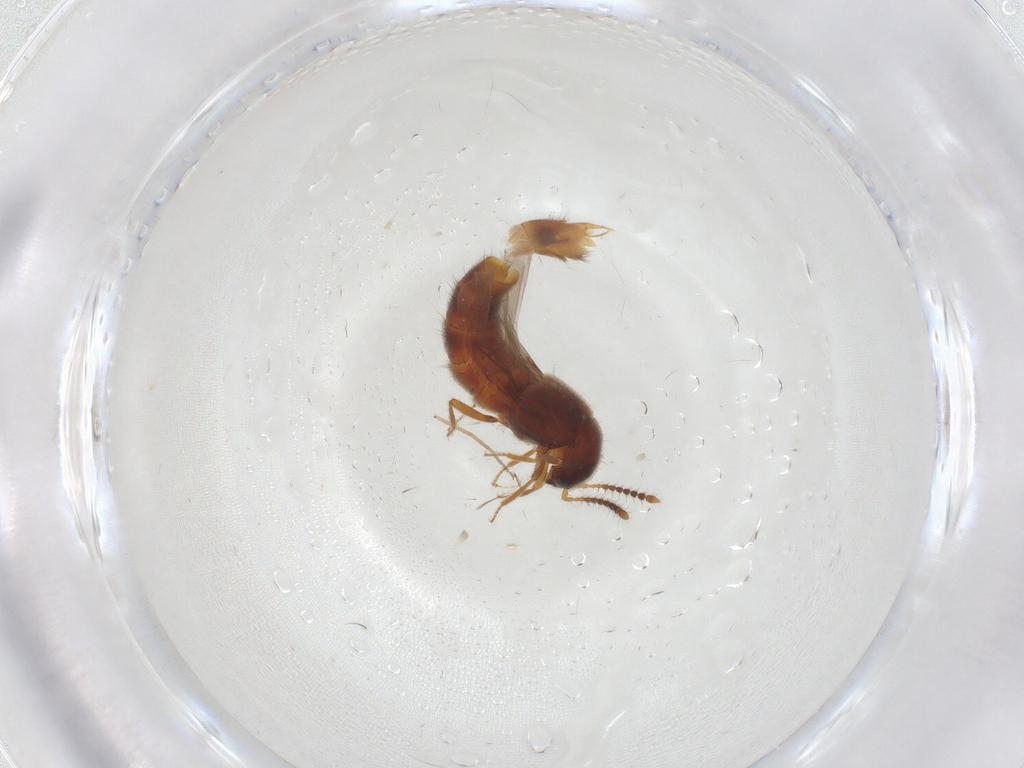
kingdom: Animalia
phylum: Arthropoda
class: Insecta
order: Coleoptera
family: Staphylinidae
